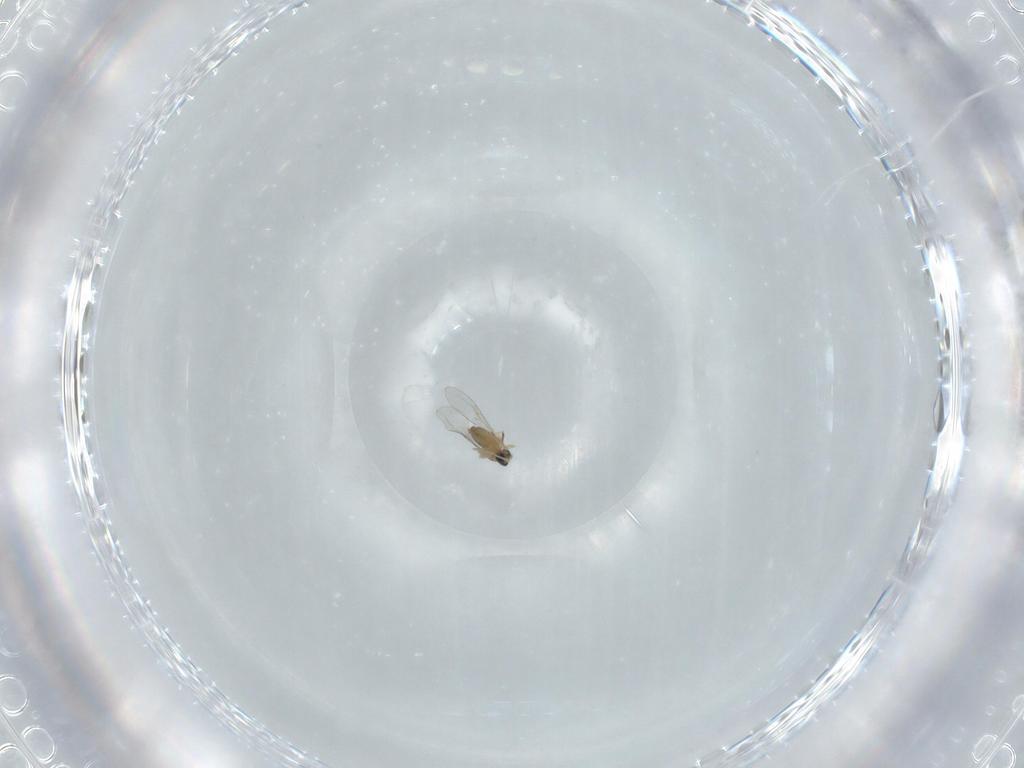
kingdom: Animalia
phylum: Arthropoda
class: Insecta
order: Diptera
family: Cecidomyiidae
